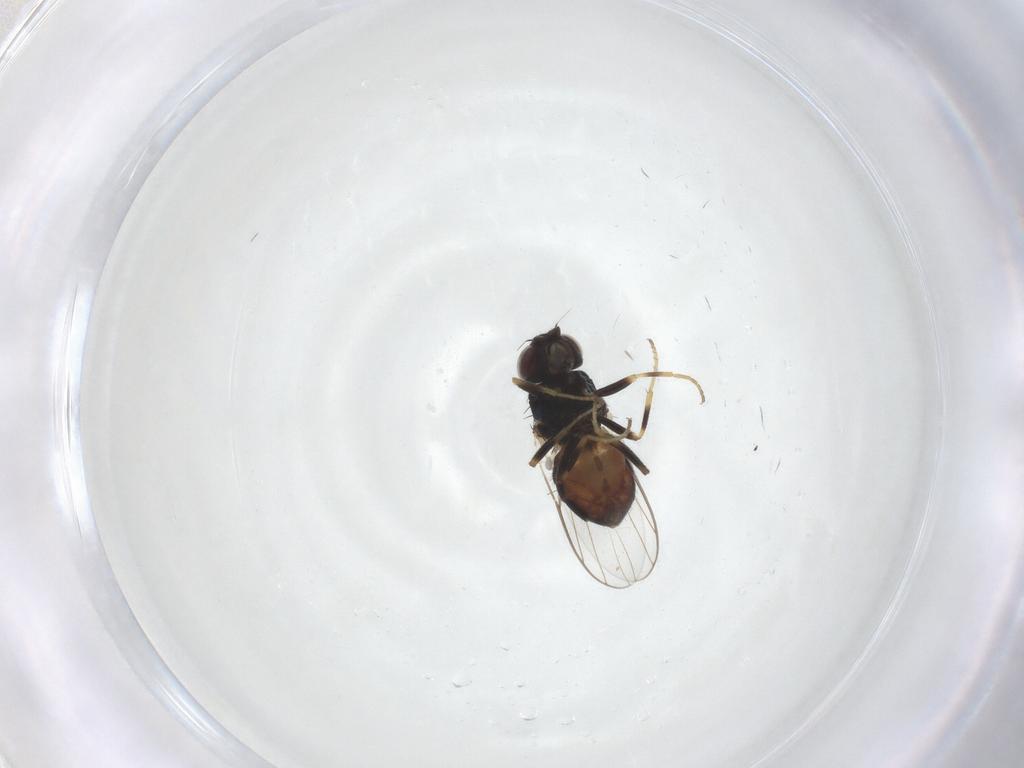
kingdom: Animalia
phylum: Arthropoda
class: Insecta
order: Diptera
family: Chloropidae
